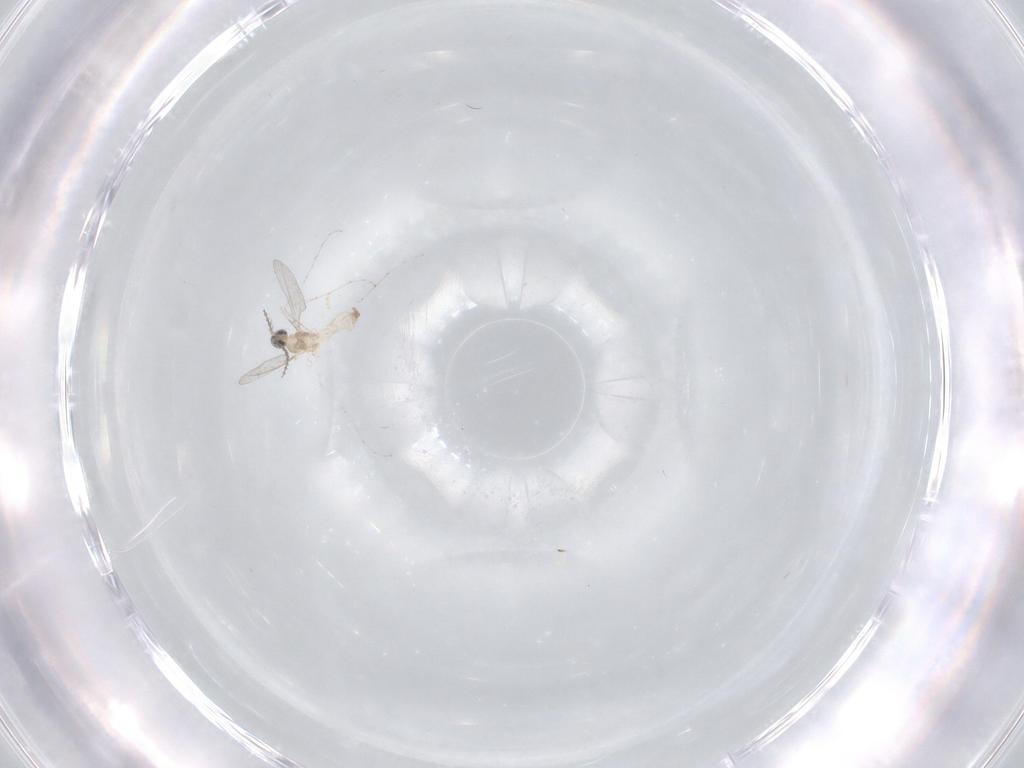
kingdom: Animalia
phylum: Arthropoda
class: Insecta
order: Diptera
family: Cecidomyiidae
